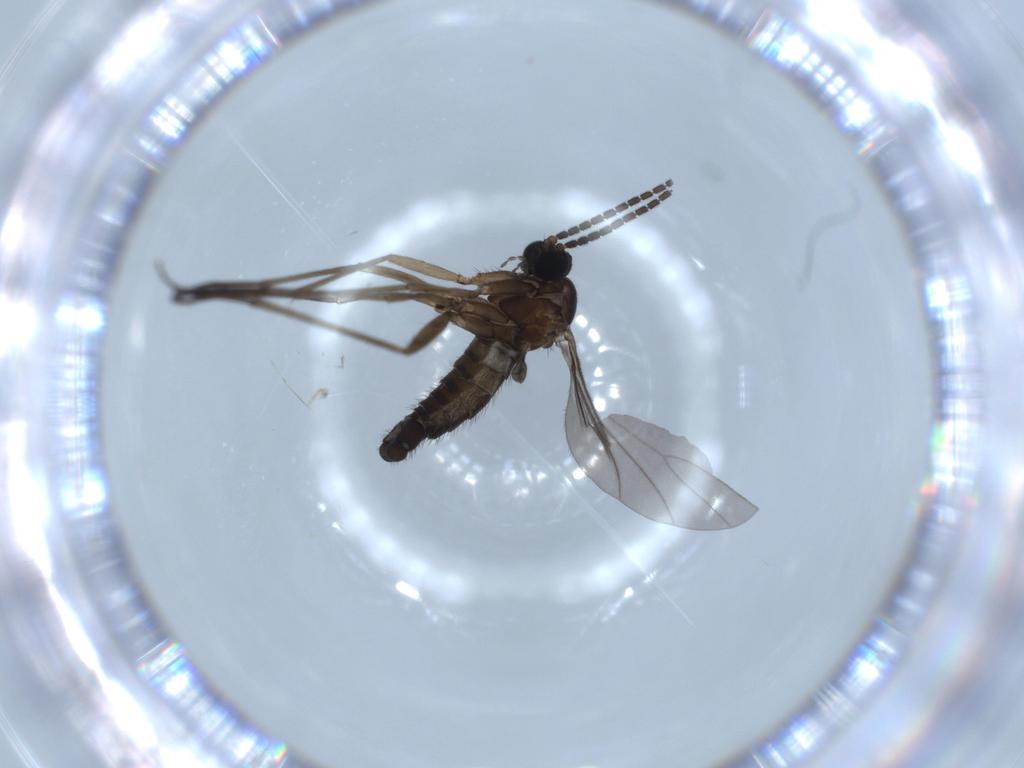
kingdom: Animalia
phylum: Arthropoda
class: Insecta
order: Diptera
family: Sciaridae
